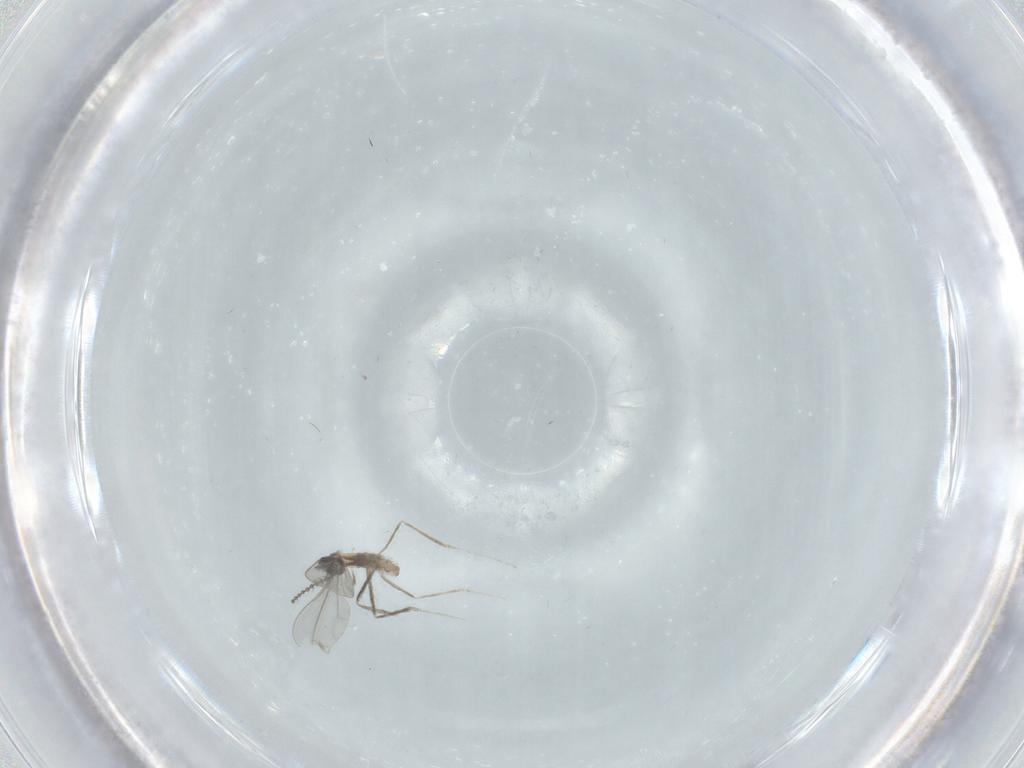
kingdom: Animalia
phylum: Arthropoda
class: Insecta
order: Diptera
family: Cecidomyiidae
